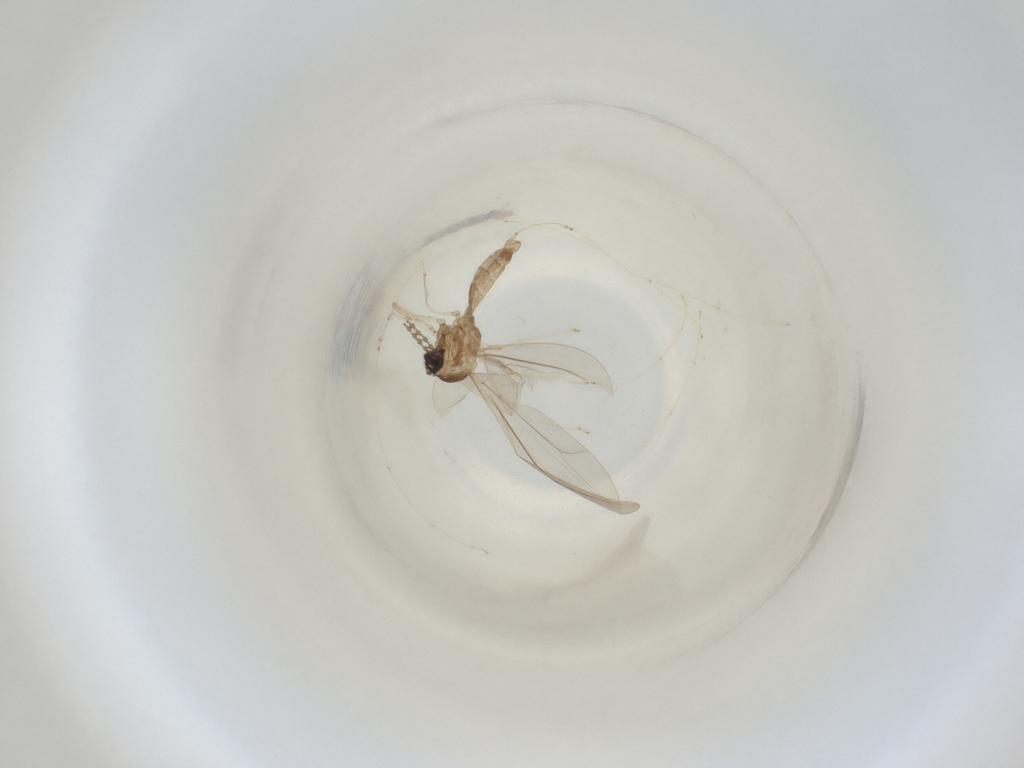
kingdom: Animalia
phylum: Arthropoda
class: Insecta
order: Diptera
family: Cecidomyiidae
